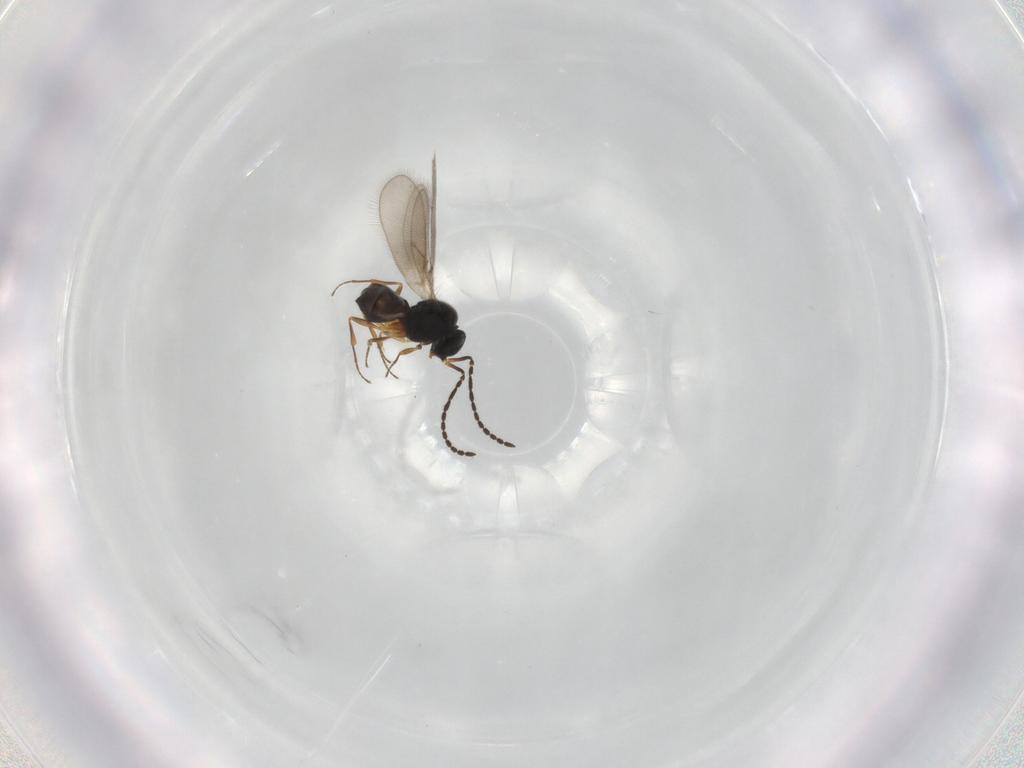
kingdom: Animalia
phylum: Arthropoda
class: Insecta
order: Hymenoptera
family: Scelionidae
